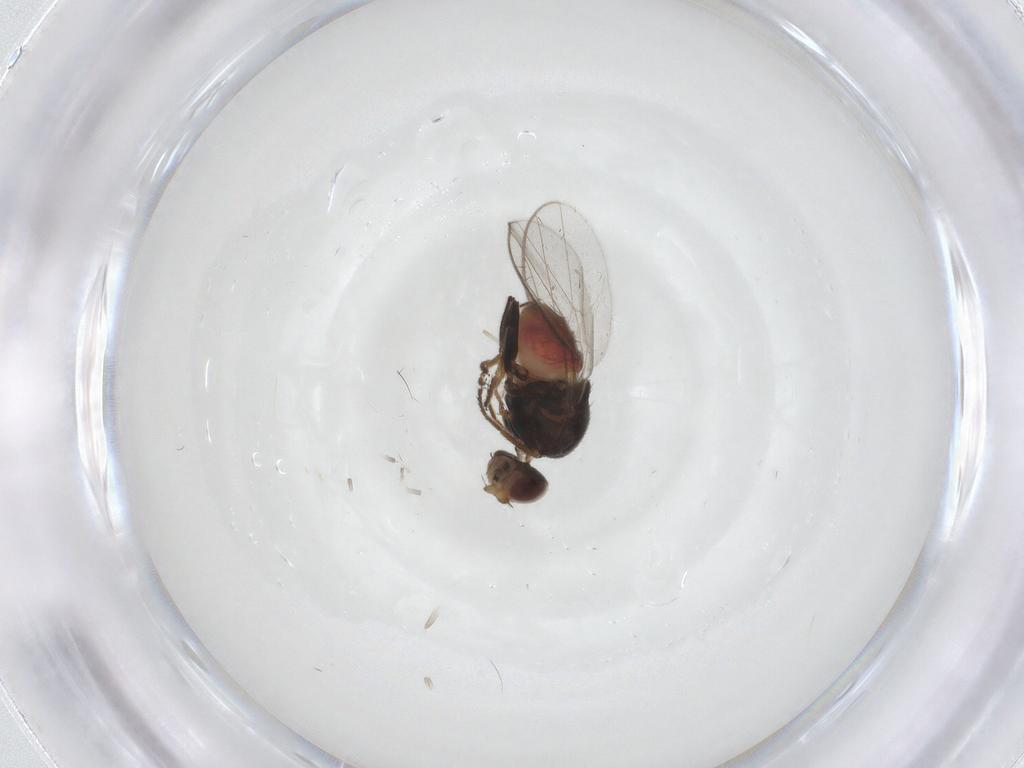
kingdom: Animalia
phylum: Arthropoda
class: Insecta
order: Diptera
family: Chloropidae
